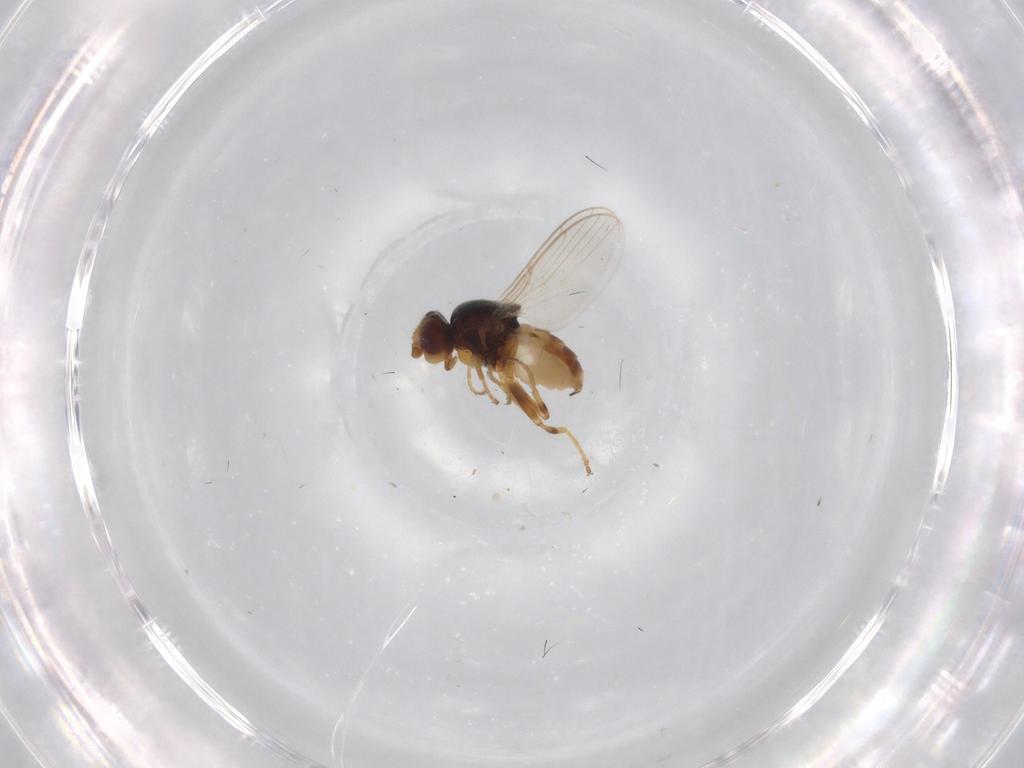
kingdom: Animalia
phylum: Arthropoda
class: Insecta
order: Diptera
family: Chloropidae
